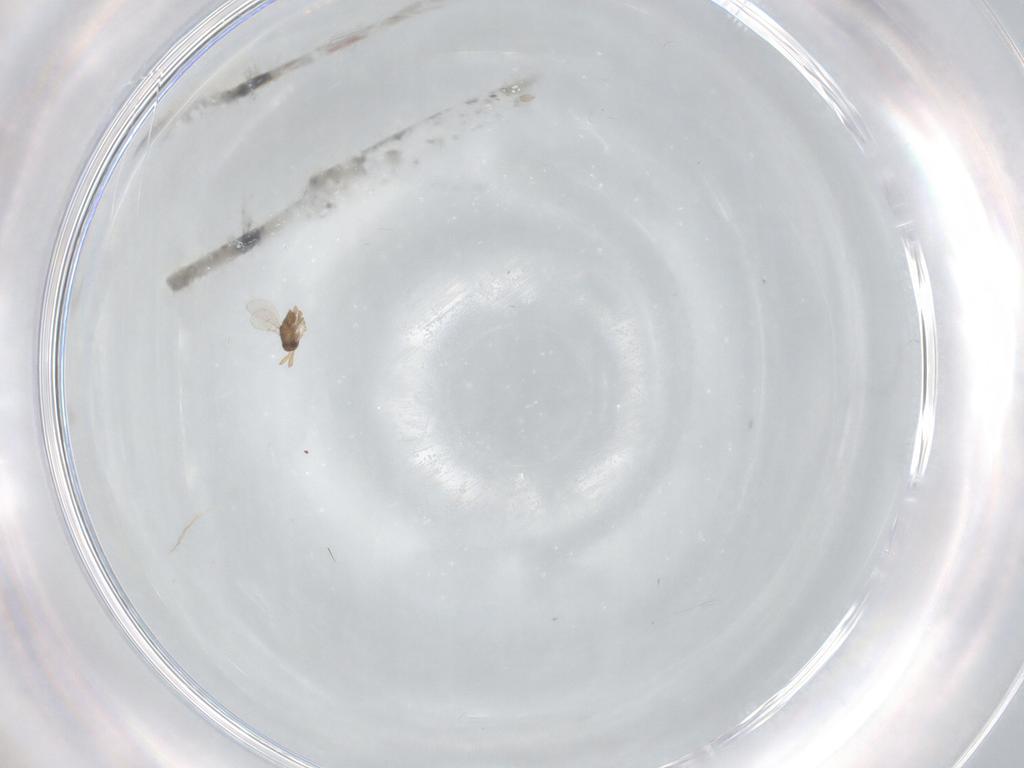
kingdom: Animalia
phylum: Arthropoda
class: Insecta
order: Hymenoptera
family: Encyrtidae
